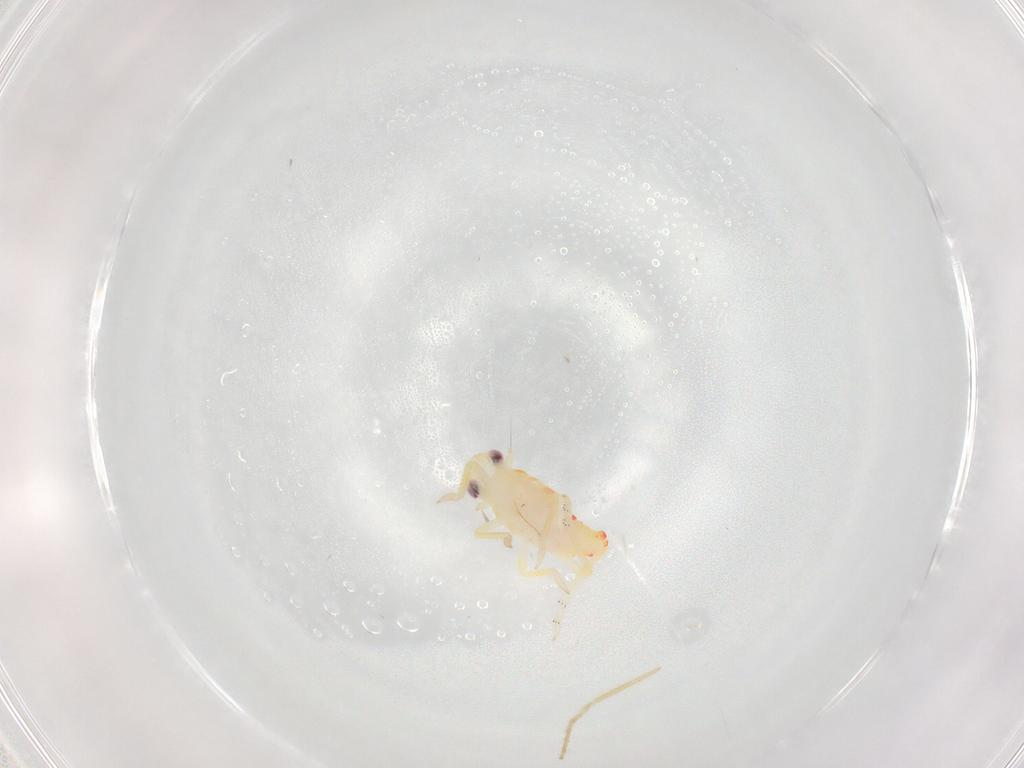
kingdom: Animalia
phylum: Arthropoda
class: Insecta
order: Hemiptera
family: Tropiduchidae
